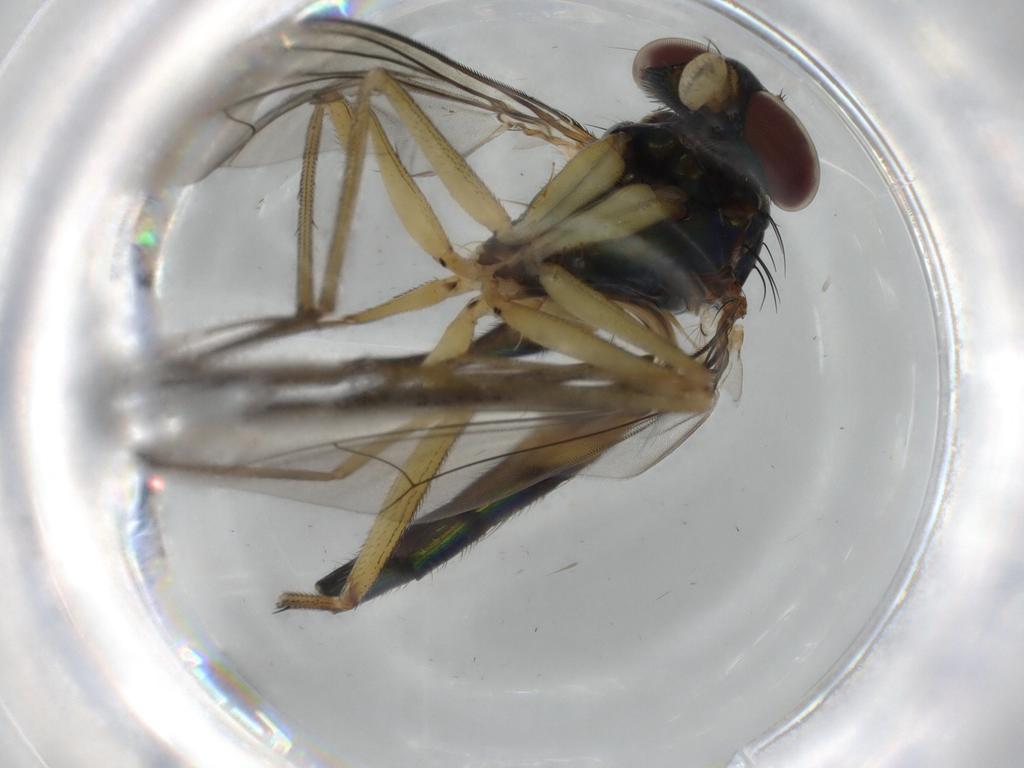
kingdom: Animalia
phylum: Arthropoda
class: Insecta
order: Diptera
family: Dolichopodidae
